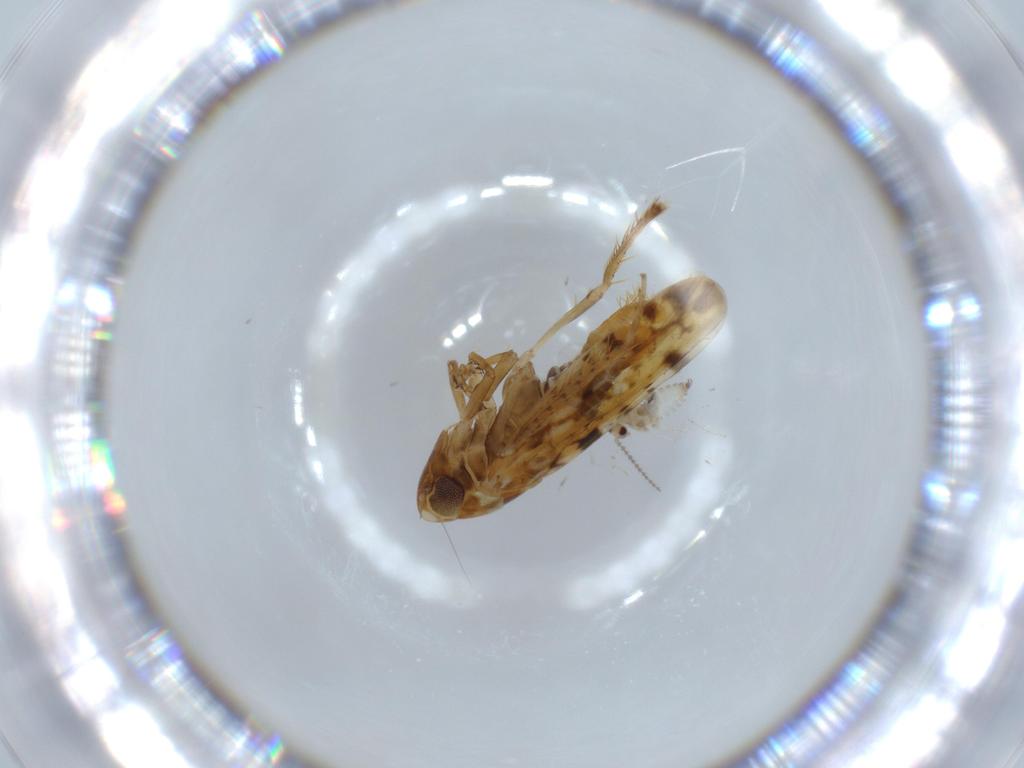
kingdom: Animalia
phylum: Arthropoda
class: Insecta
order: Hemiptera
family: Cicadellidae
